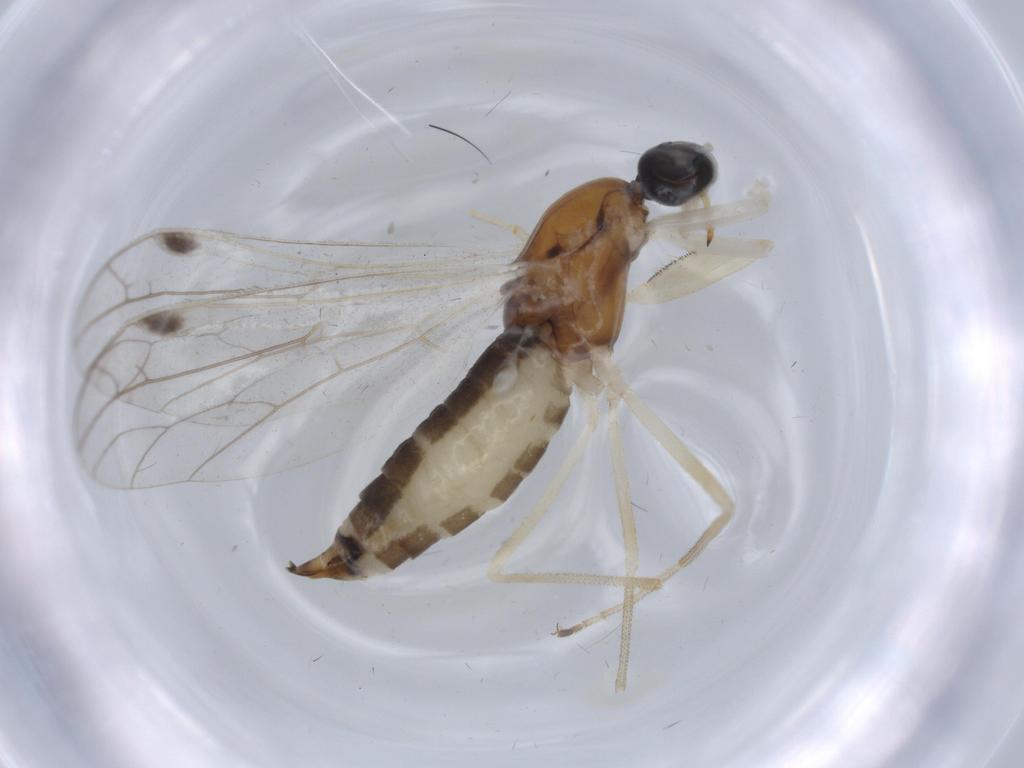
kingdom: Animalia
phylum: Arthropoda
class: Insecta
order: Diptera
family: Empididae
